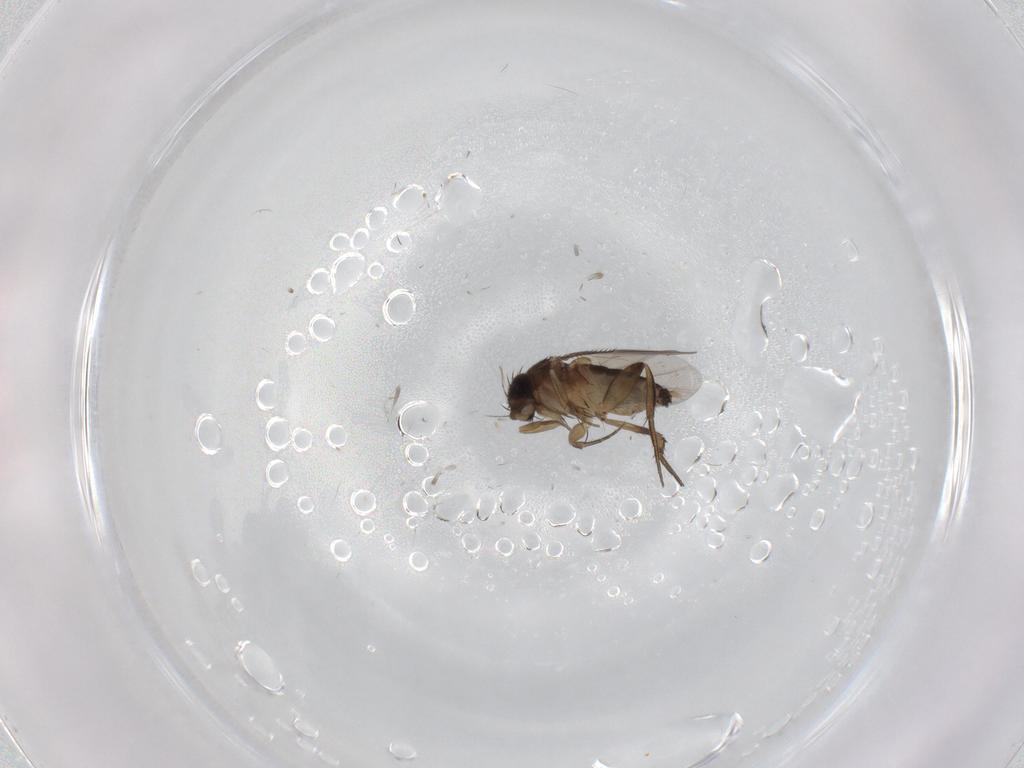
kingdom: Animalia
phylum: Arthropoda
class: Insecta
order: Diptera
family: Phoridae
